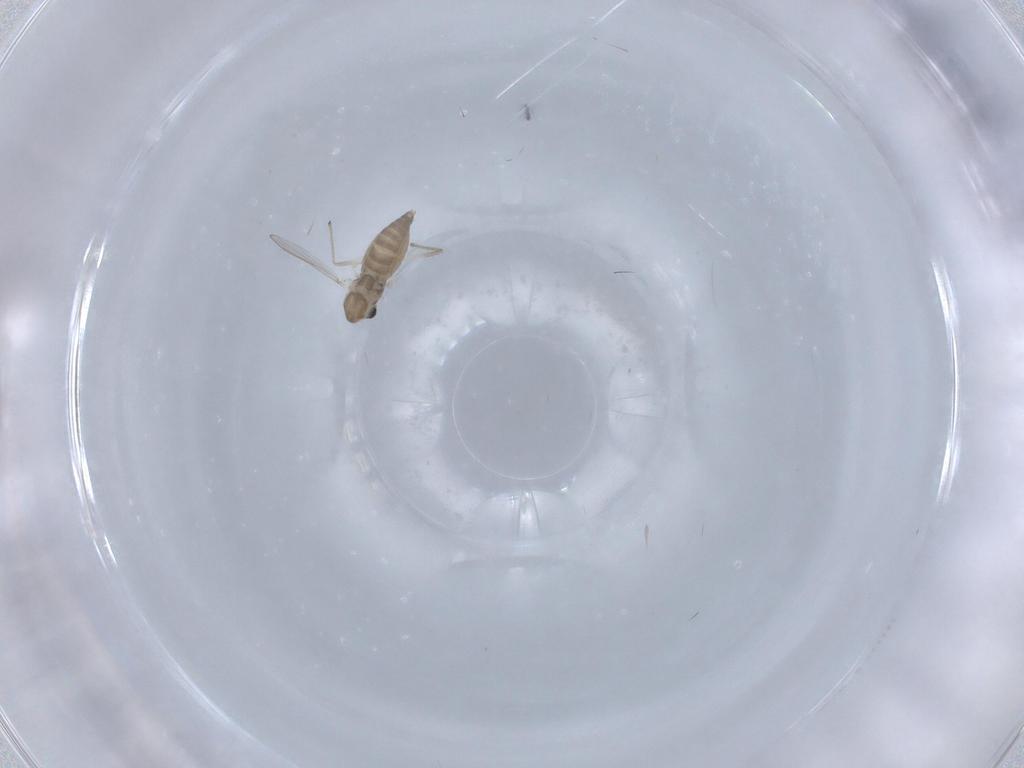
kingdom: Animalia
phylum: Arthropoda
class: Insecta
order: Diptera
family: Chironomidae
